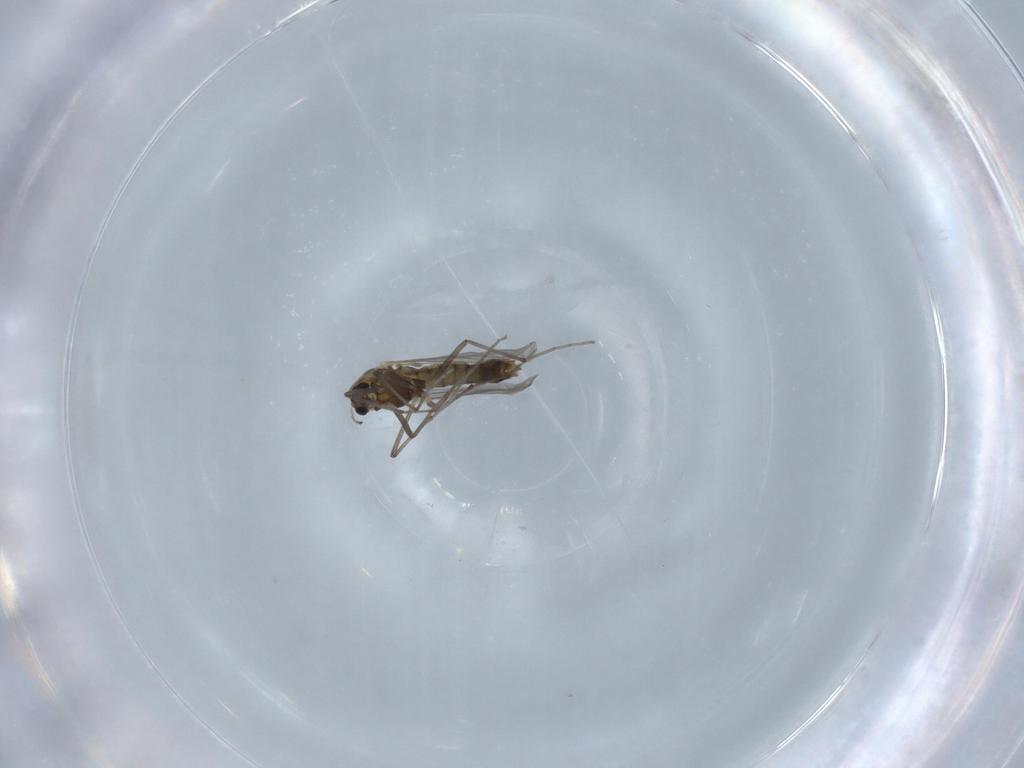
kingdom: Animalia
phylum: Arthropoda
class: Insecta
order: Diptera
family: Chironomidae
